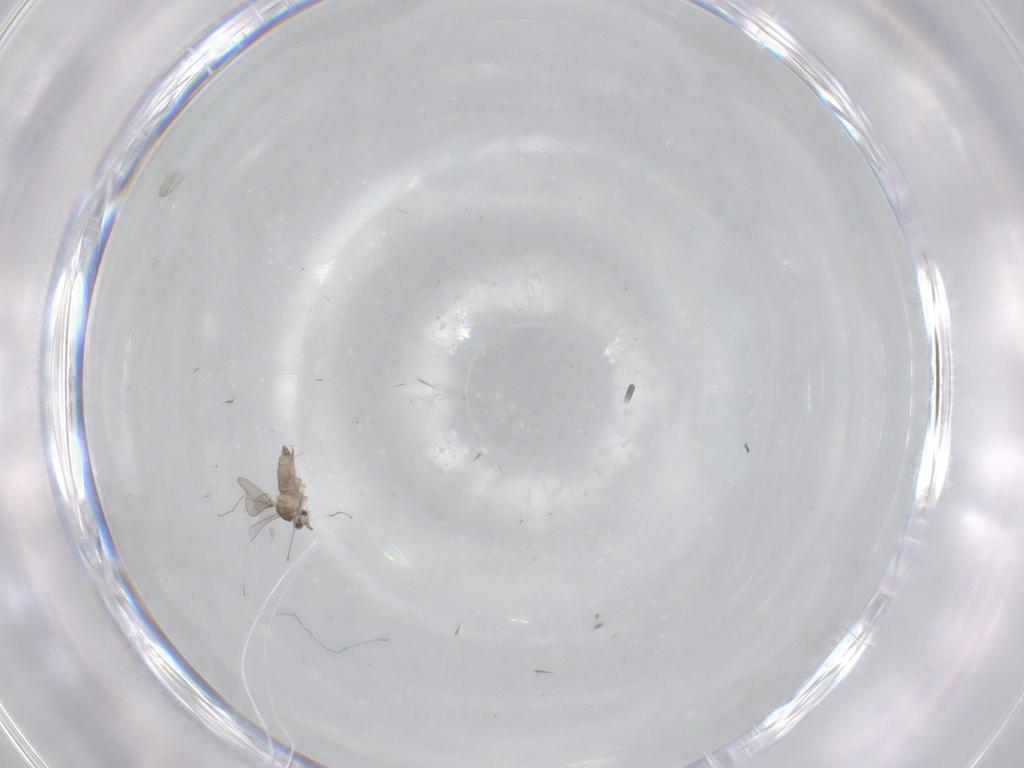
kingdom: Animalia
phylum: Arthropoda
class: Insecta
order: Diptera
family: Cecidomyiidae
